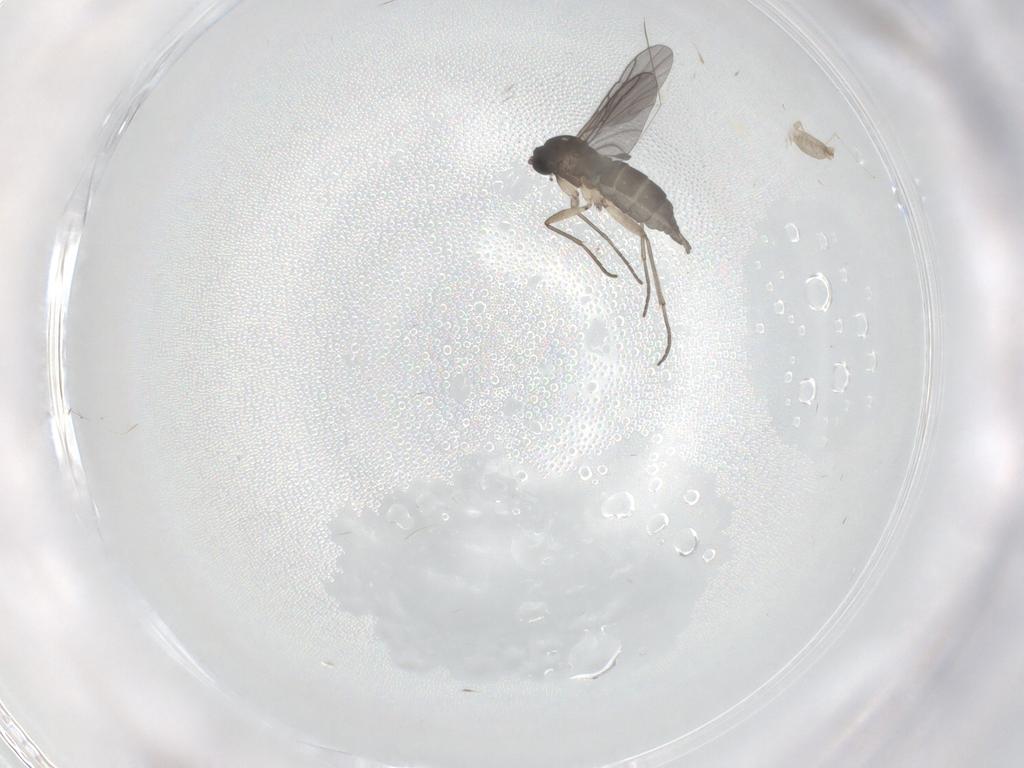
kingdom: Animalia
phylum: Arthropoda
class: Insecta
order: Diptera
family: Sciaridae
